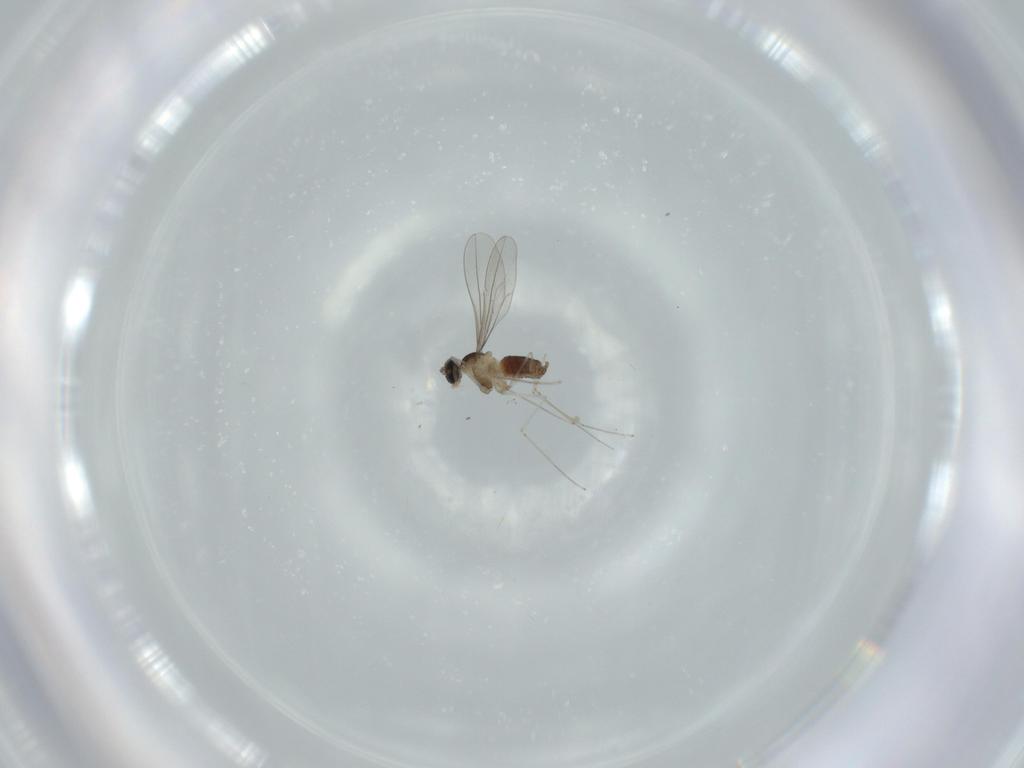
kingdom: Animalia
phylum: Arthropoda
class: Insecta
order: Diptera
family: Cecidomyiidae
